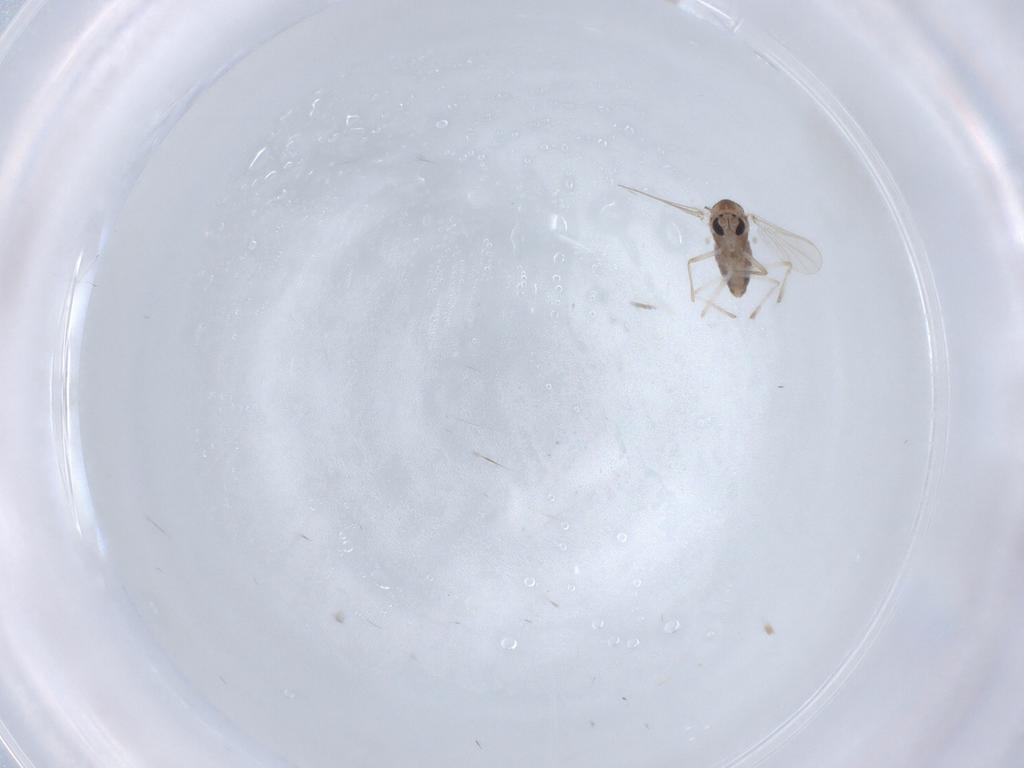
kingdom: Animalia
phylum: Arthropoda
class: Insecta
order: Diptera
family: Chironomidae
